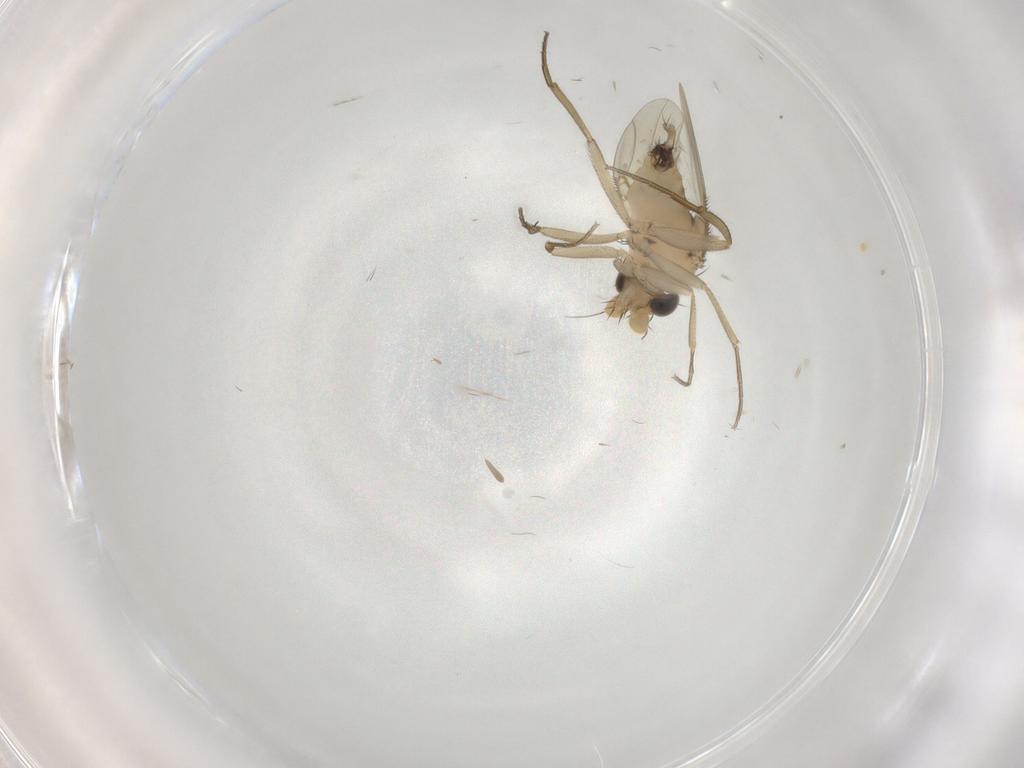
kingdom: Animalia
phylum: Arthropoda
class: Insecta
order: Diptera
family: Phoridae
